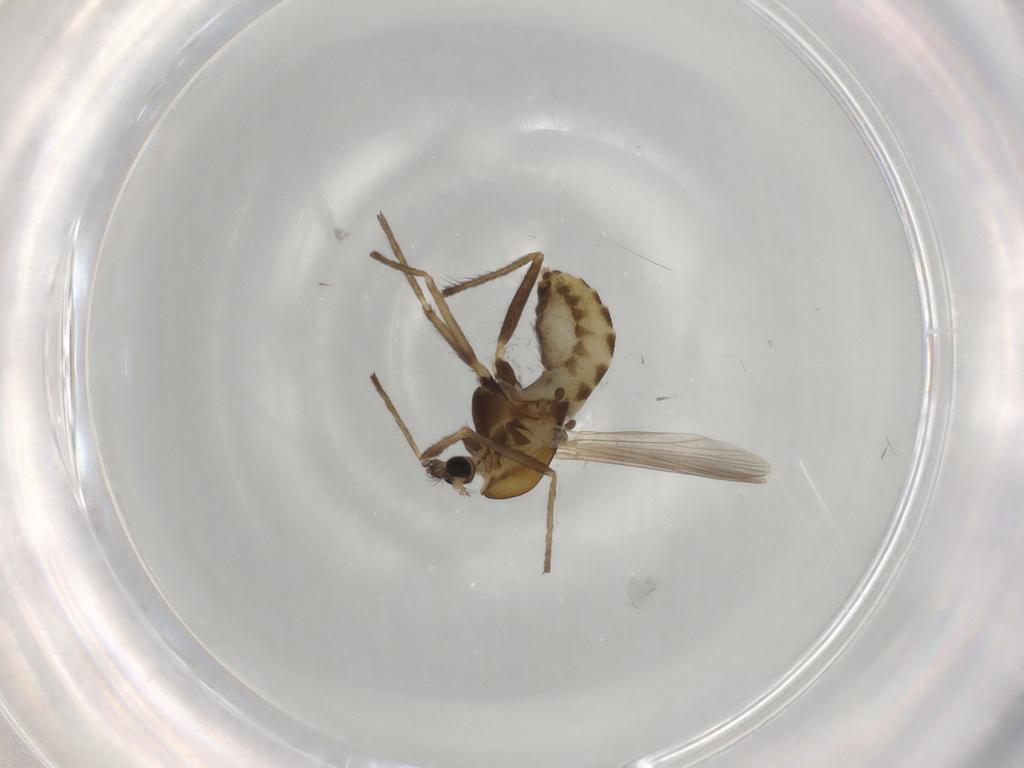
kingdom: Animalia
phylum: Arthropoda
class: Insecta
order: Diptera
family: Chironomidae
